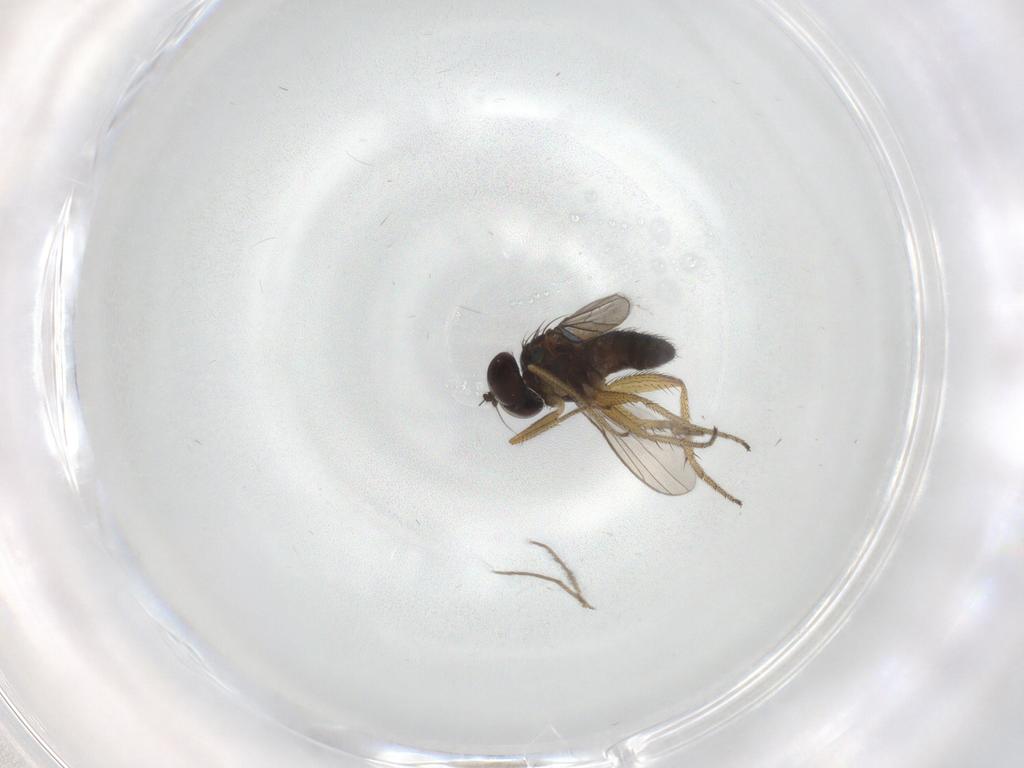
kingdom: Animalia
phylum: Arthropoda
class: Insecta
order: Diptera
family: Chironomidae
